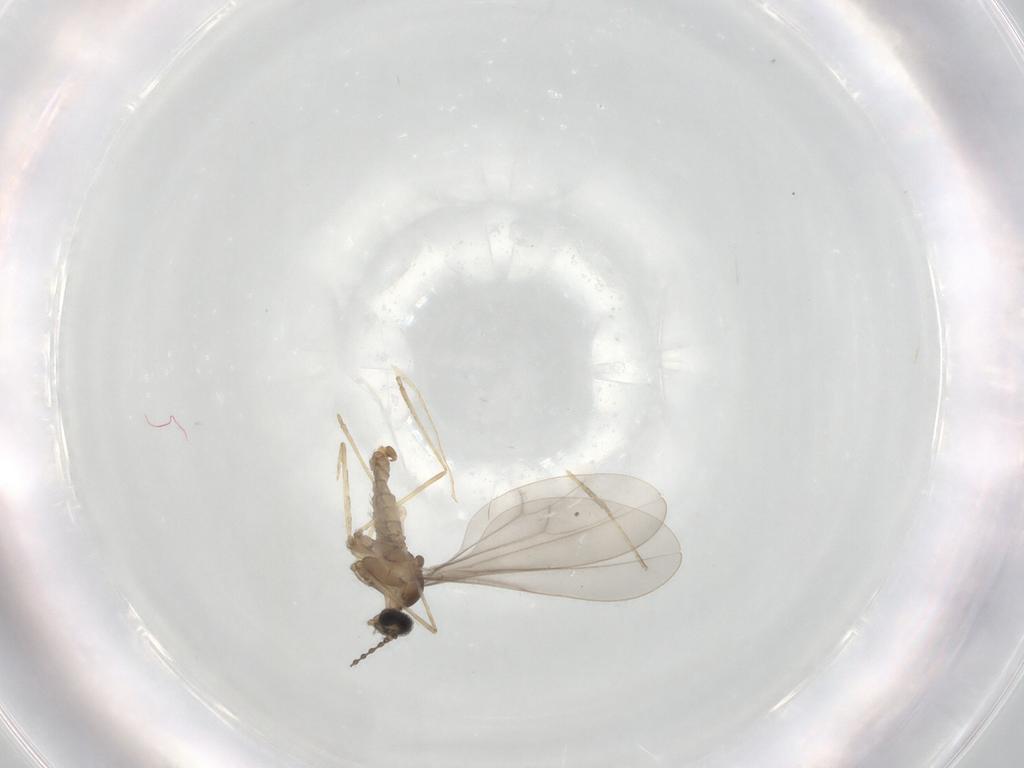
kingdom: Animalia
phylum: Arthropoda
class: Insecta
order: Diptera
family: Cecidomyiidae
